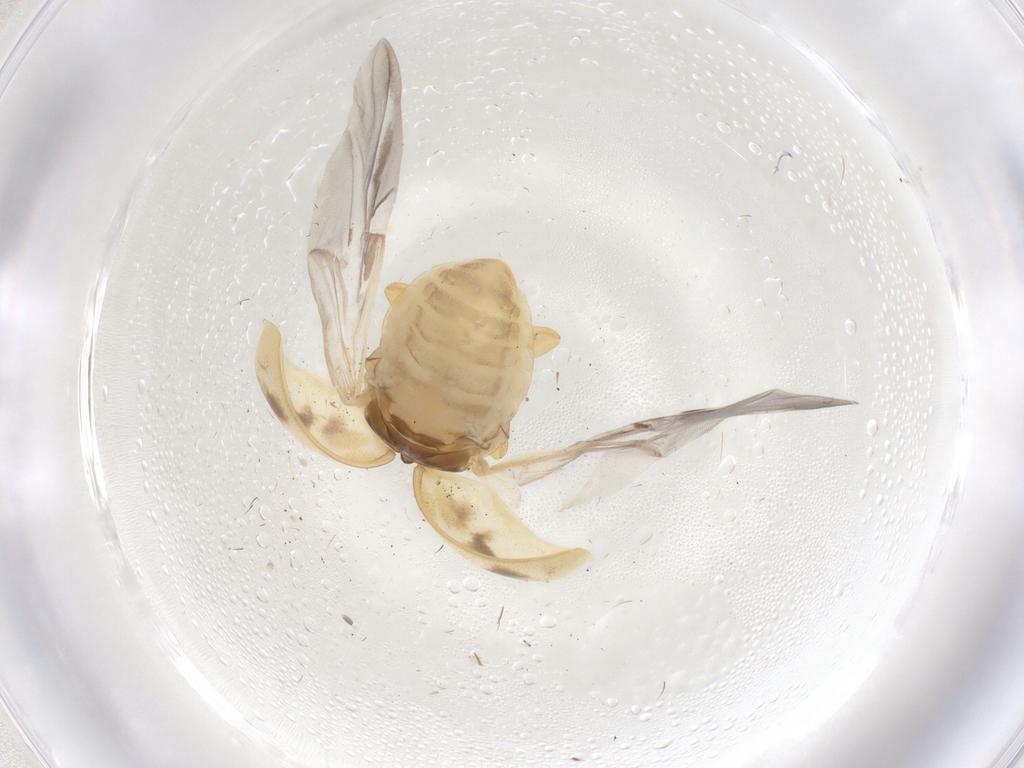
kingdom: Animalia
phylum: Arthropoda
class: Insecta
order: Coleoptera
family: Coccinellidae
